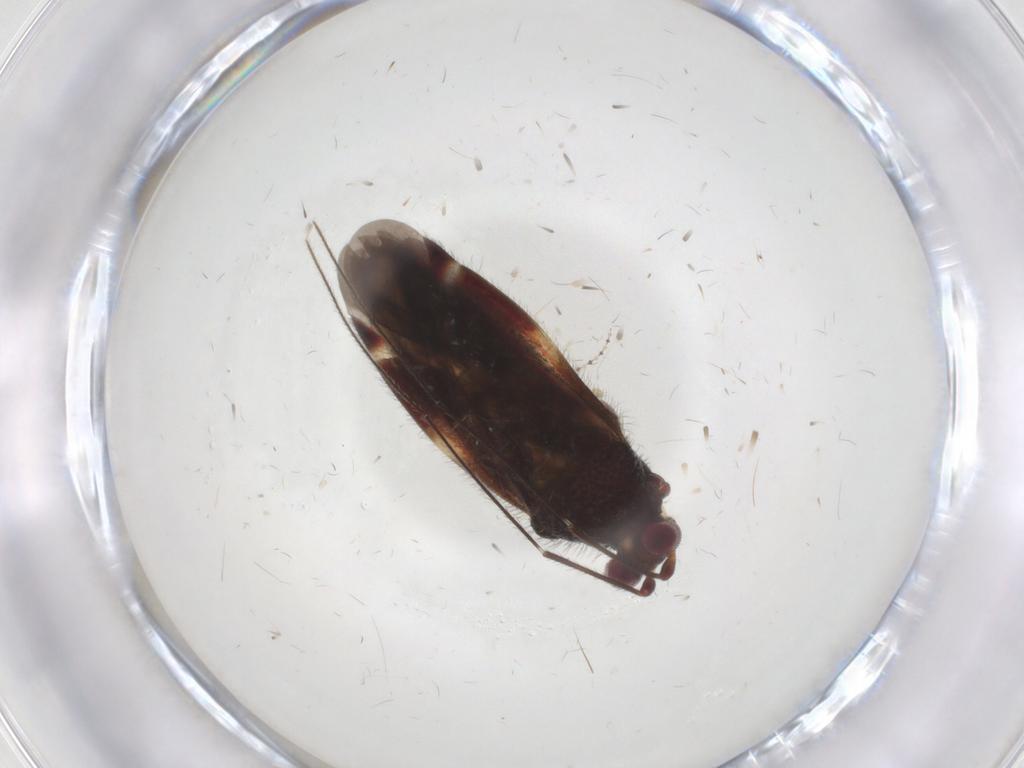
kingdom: Animalia
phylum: Arthropoda
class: Insecta
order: Hemiptera
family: Miridae
